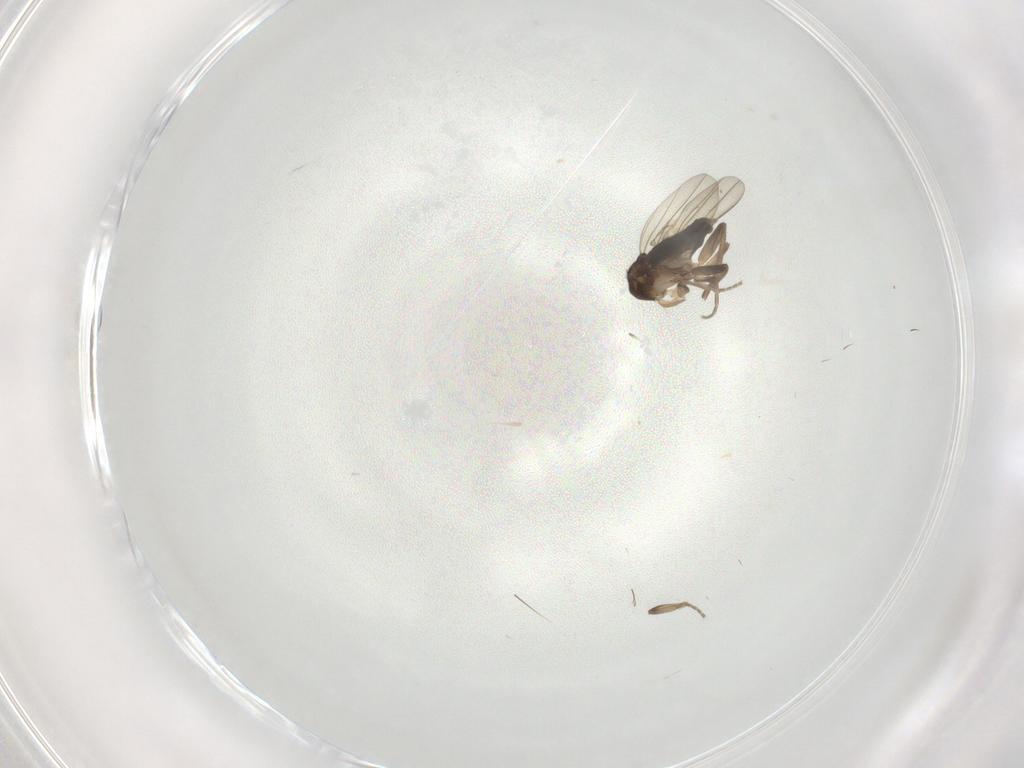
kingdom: Animalia
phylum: Arthropoda
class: Insecta
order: Diptera
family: Phoridae
